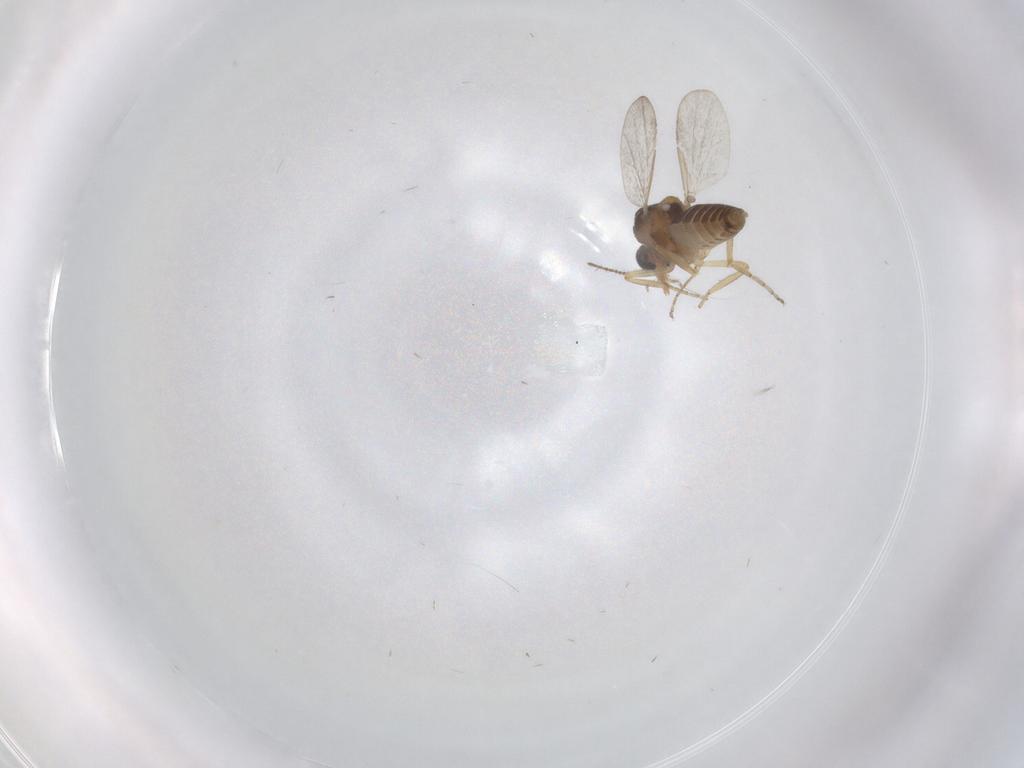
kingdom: Animalia
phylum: Arthropoda
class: Insecta
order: Diptera
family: Ceratopogonidae
